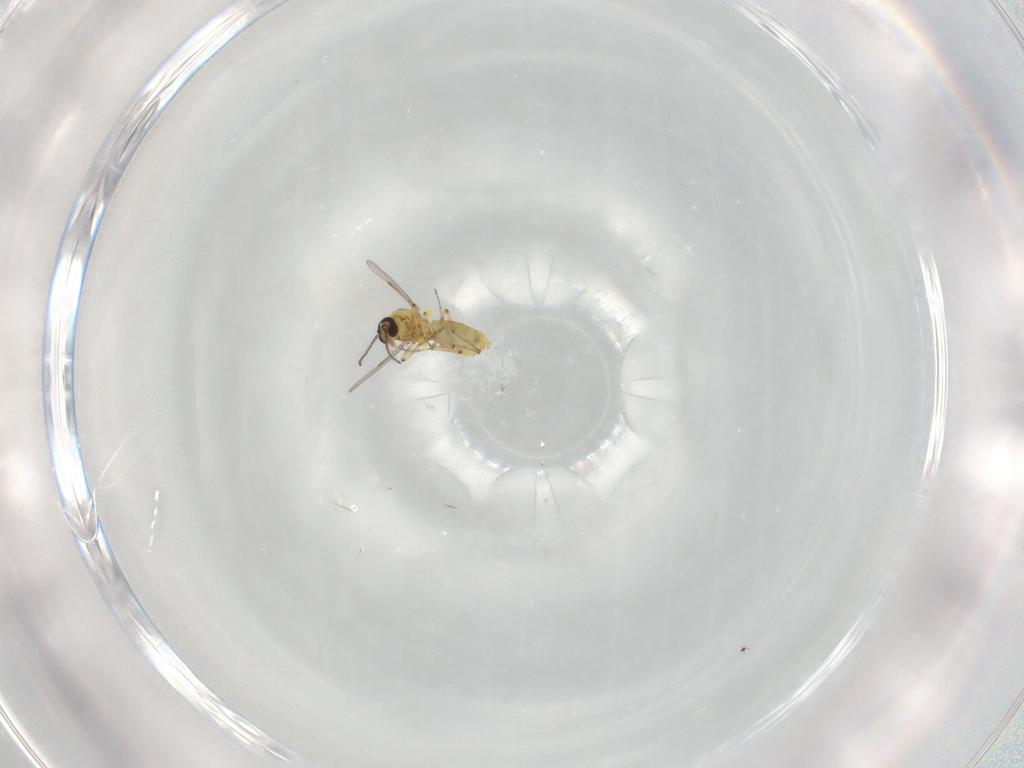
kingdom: Animalia
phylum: Arthropoda
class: Insecta
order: Diptera
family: Ceratopogonidae
